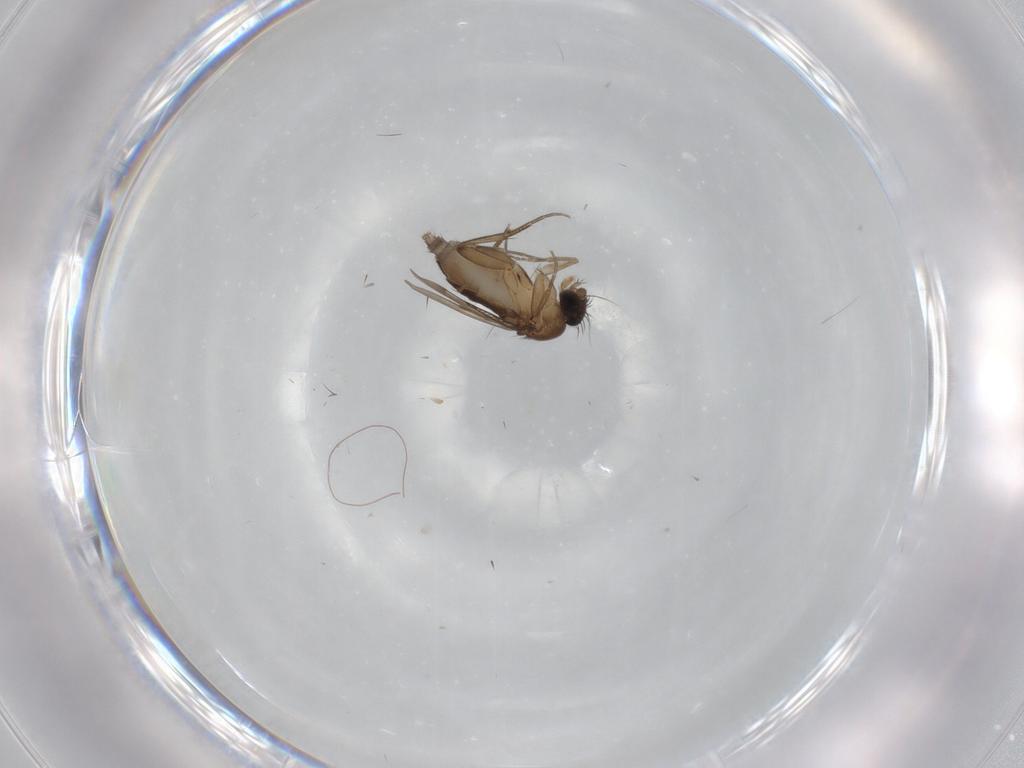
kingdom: Animalia
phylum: Arthropoda
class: Insecta
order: Diptera
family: Phoridae
